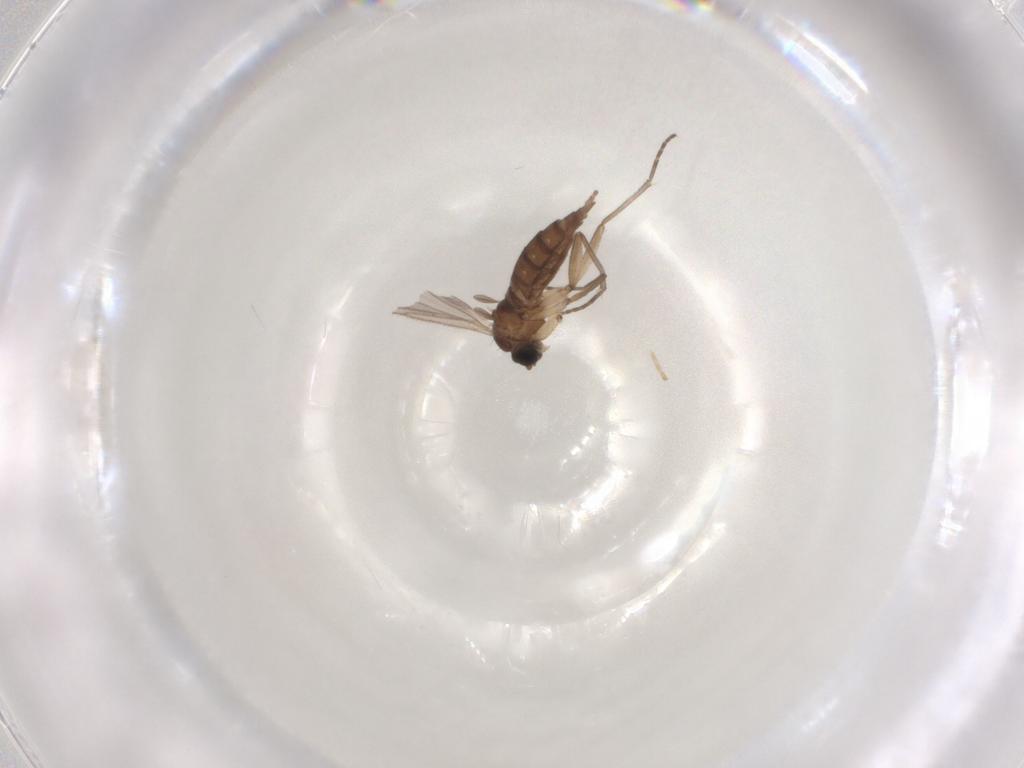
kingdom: Animalia
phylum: Arthropoda
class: Insecta
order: Diptera
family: Sciaridae
